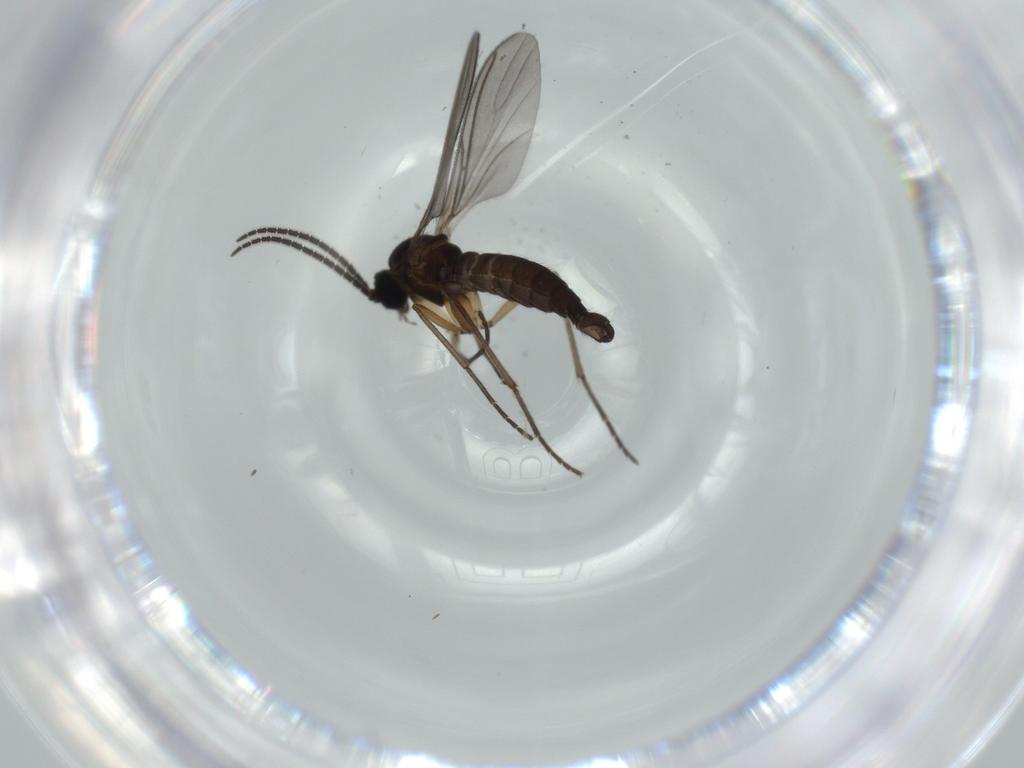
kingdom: Animalia
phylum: Arthropoda
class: Insecta
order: Diptera
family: Sciaridae
